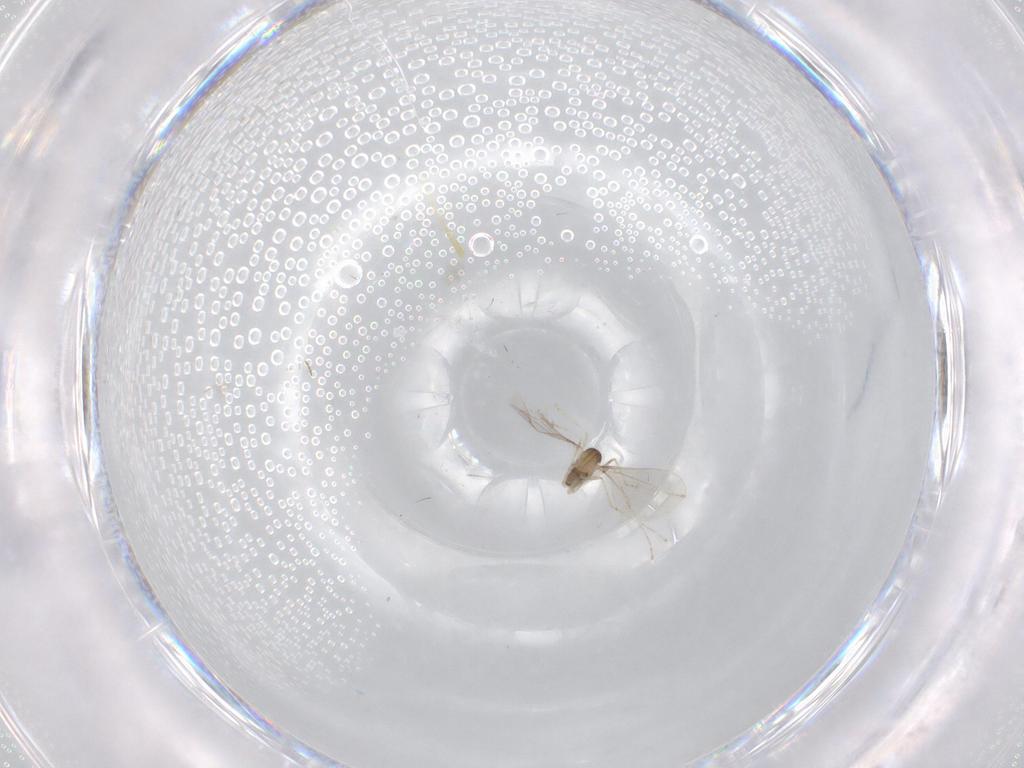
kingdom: Animalia
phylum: Arthropoda
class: Insecta
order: Diptera
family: Cecidomyiidae
